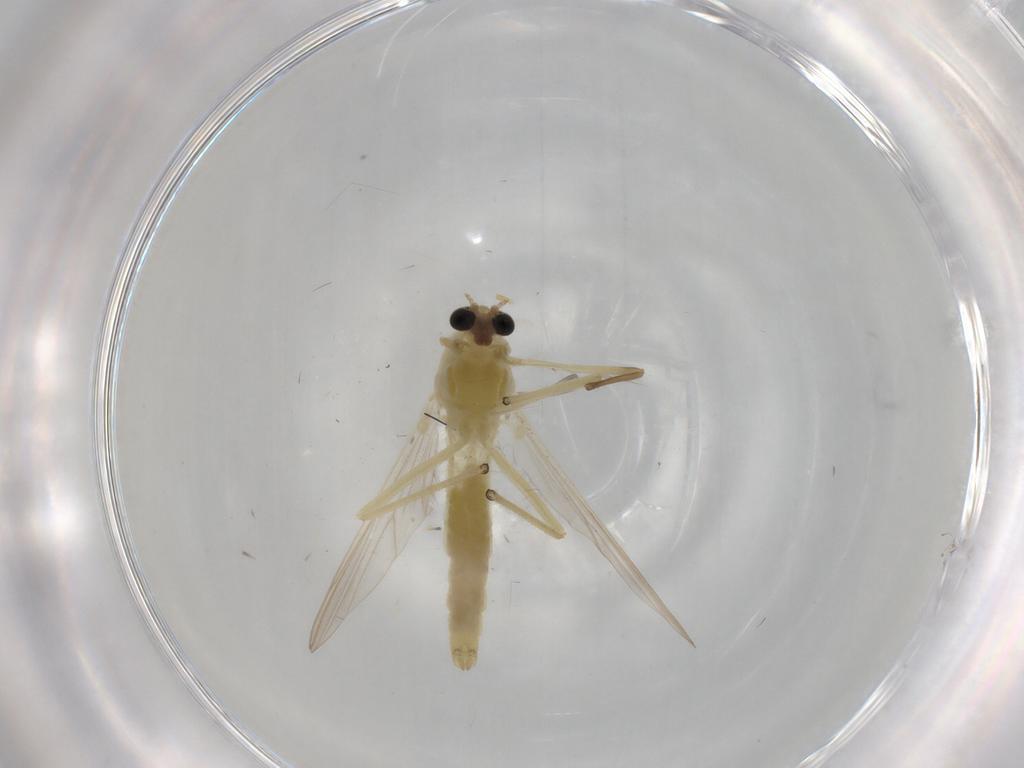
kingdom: Animalia
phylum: Arthropoda
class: Insecta
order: Diptera
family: Chironomidae
